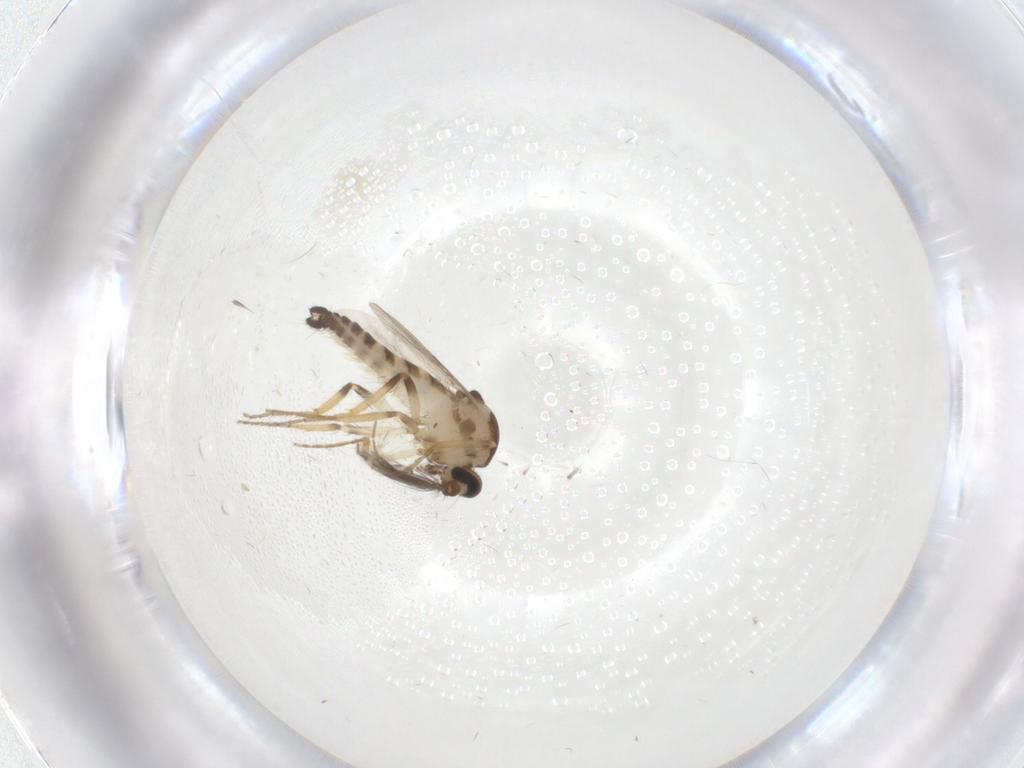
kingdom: Animalia
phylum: Arthropoda
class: Insecta
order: Diptera
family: Ceratopogonidae
